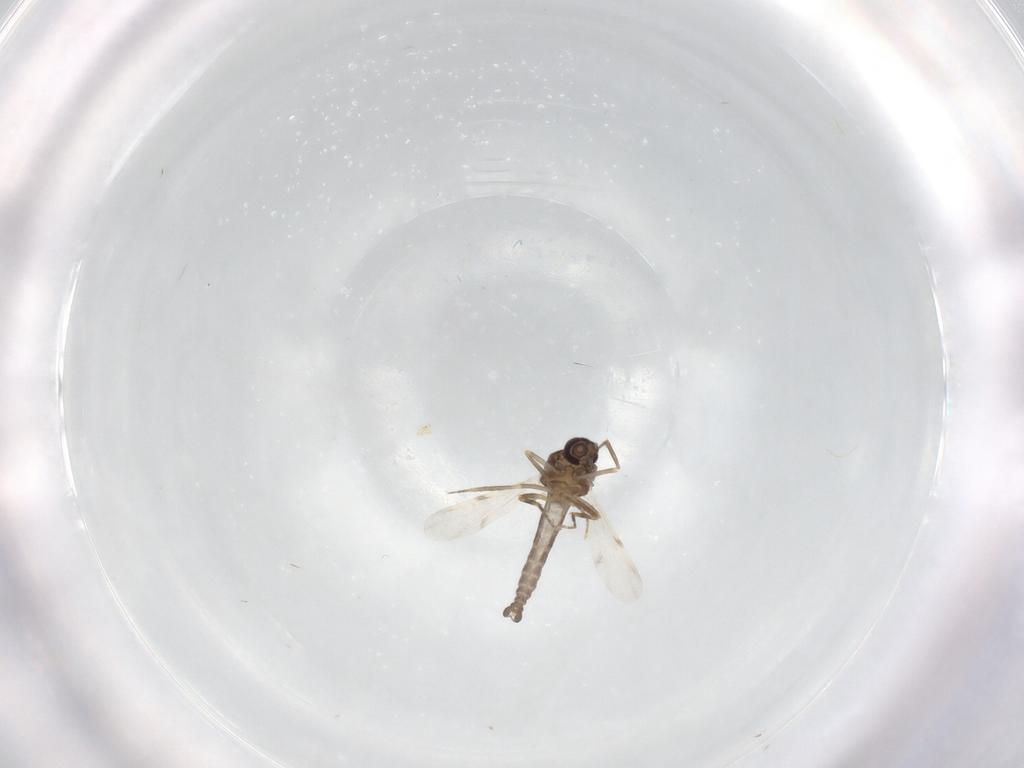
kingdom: Animalia
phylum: Arthropoda
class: Insecta
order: Diptera
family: Ceratopogonidae
